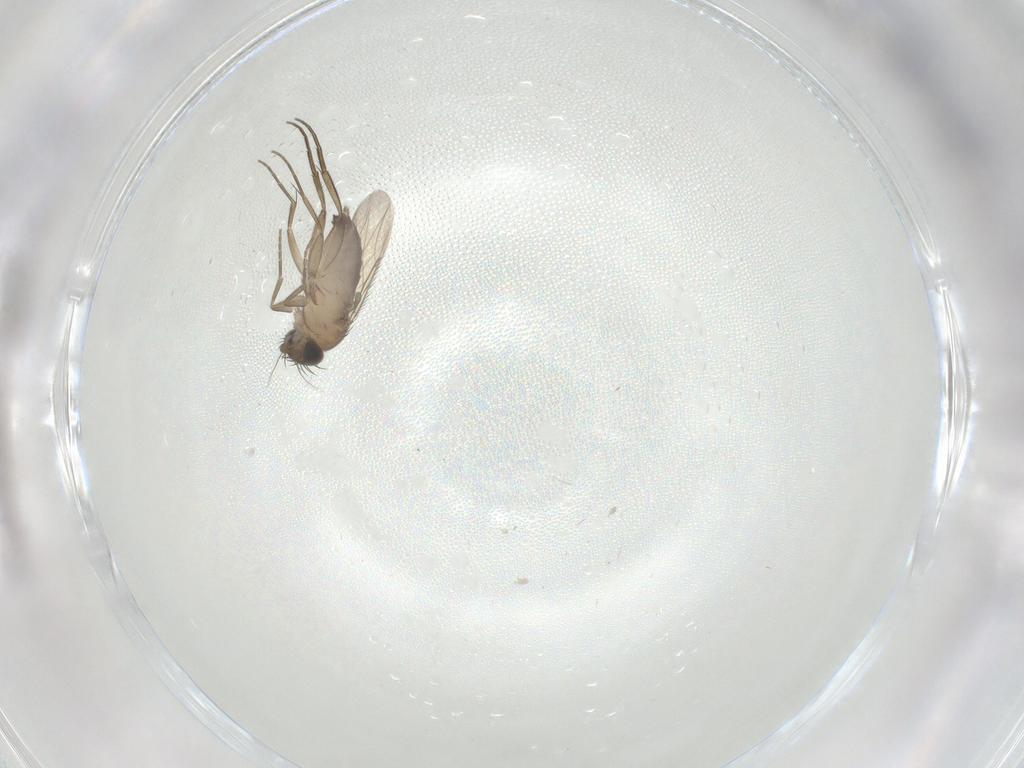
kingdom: Animalia
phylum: Arthropoda
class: Insecta
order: Diptera
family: Phoridae
